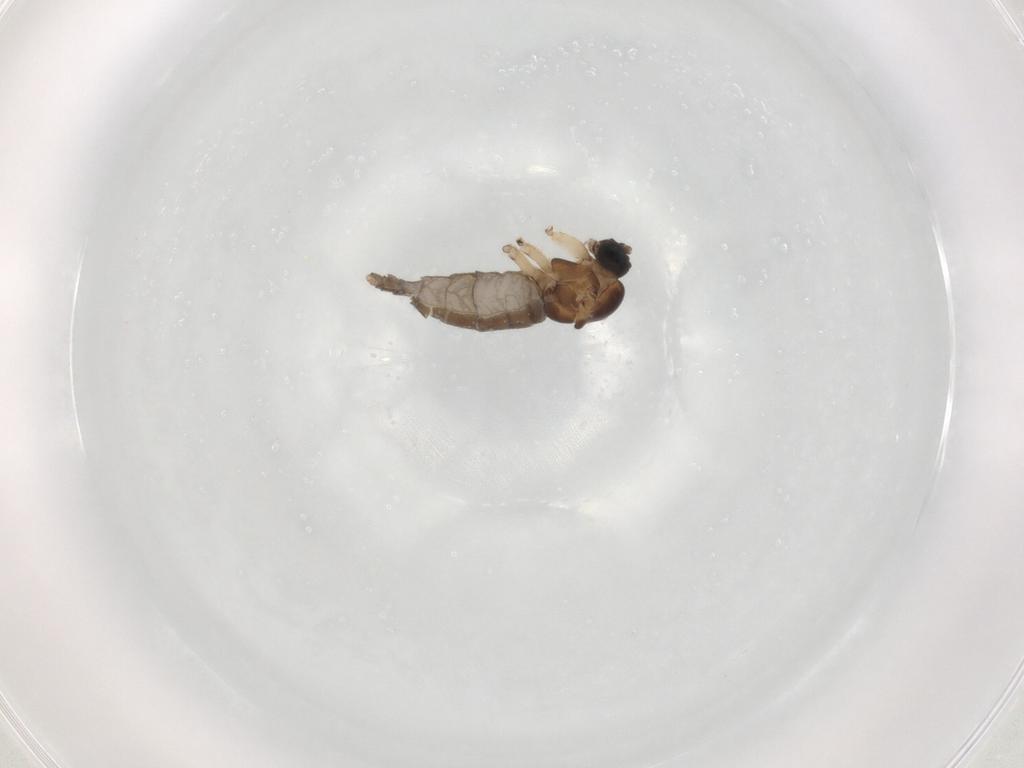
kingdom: Animalia
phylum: Arthropoda
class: Insecta
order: Diptera
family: Sciaridae
